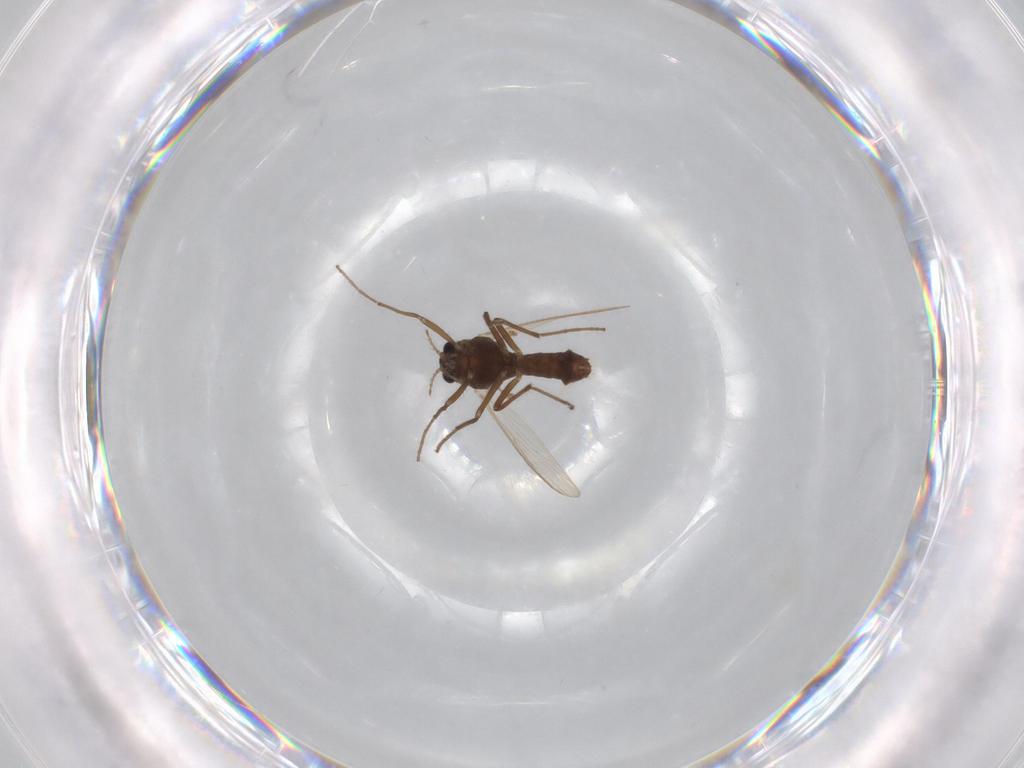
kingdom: Animalia
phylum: Arthropoda
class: Insecta
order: Diptera
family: Chironomidae
